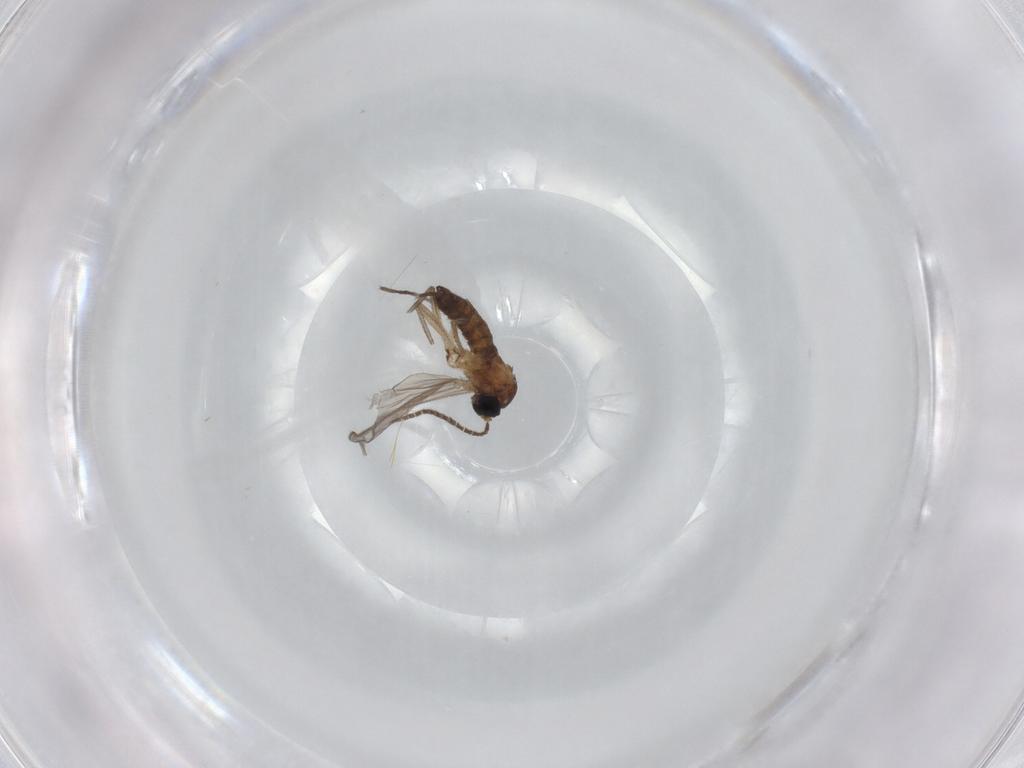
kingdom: Animalia
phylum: Arthropoda
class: Insecta
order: Diptera
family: Sciaridae
